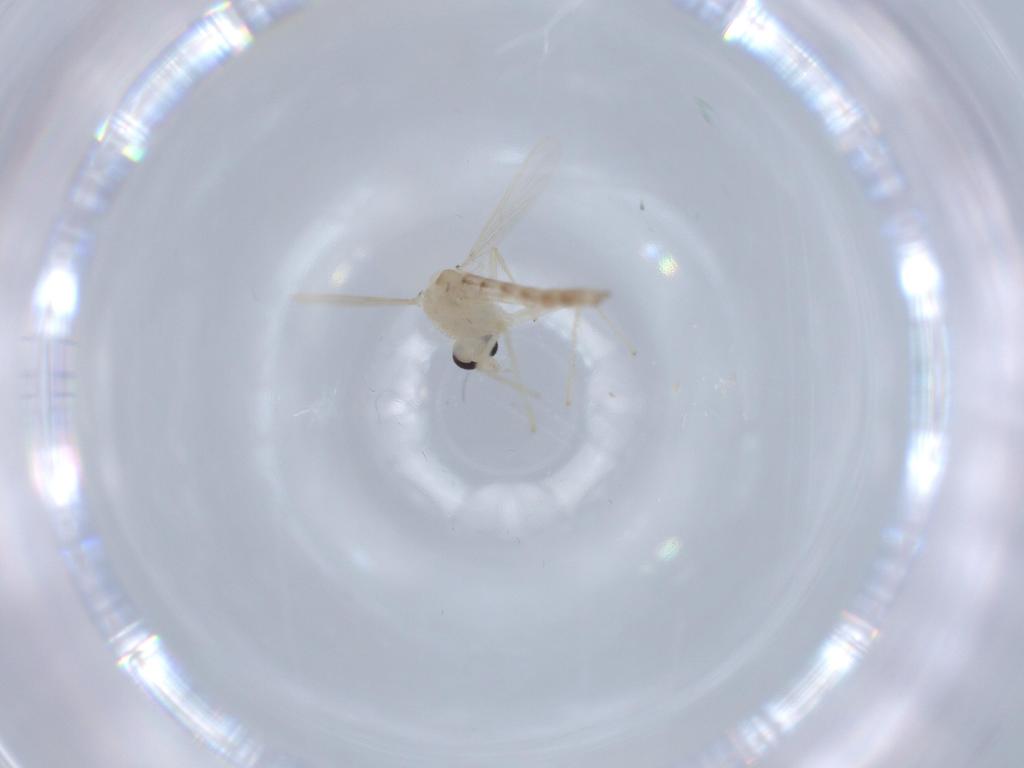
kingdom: Animalia
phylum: Arthropoda
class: Insecta
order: Diptera
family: Chironomidae
